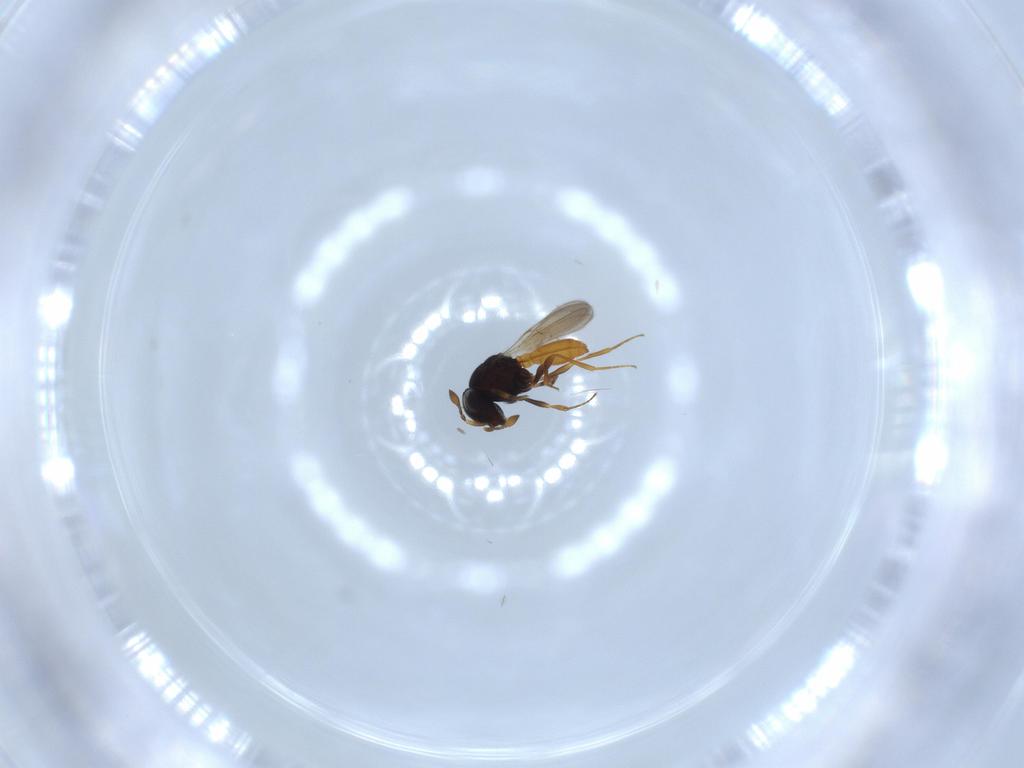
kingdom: Animalia
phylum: Arthropoda
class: Insecta
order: Hymenoptera
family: Scelionidae
